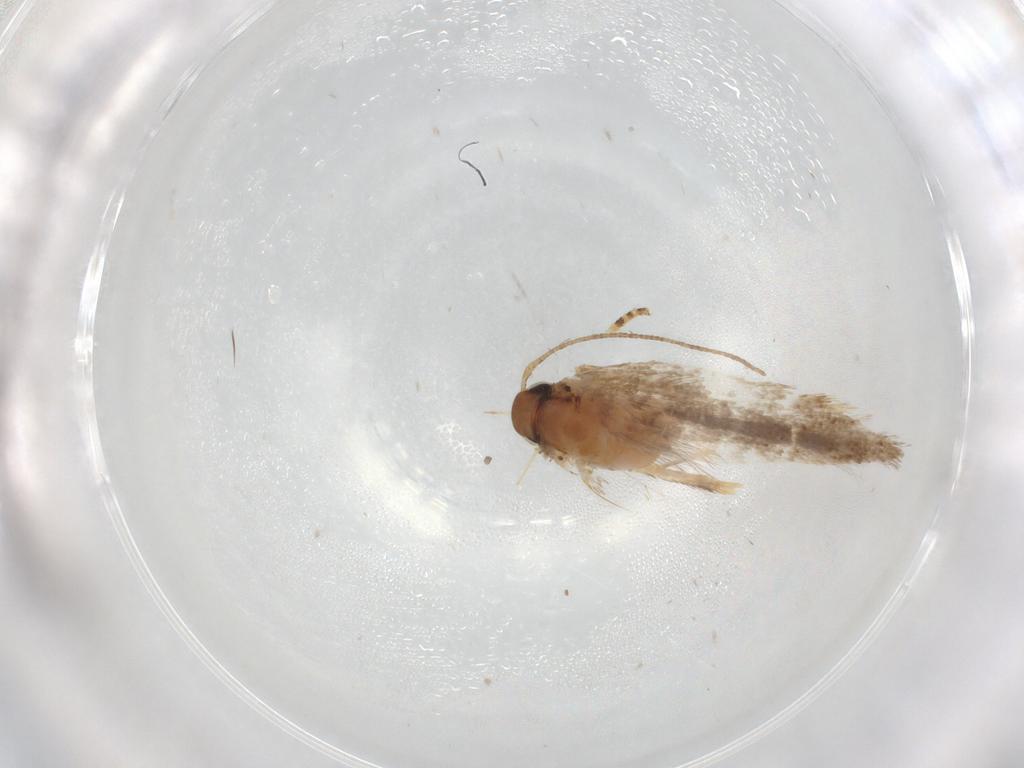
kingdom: Animalia
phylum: Arthropoda
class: Insecta
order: Lepidoptera
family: Crambidae
